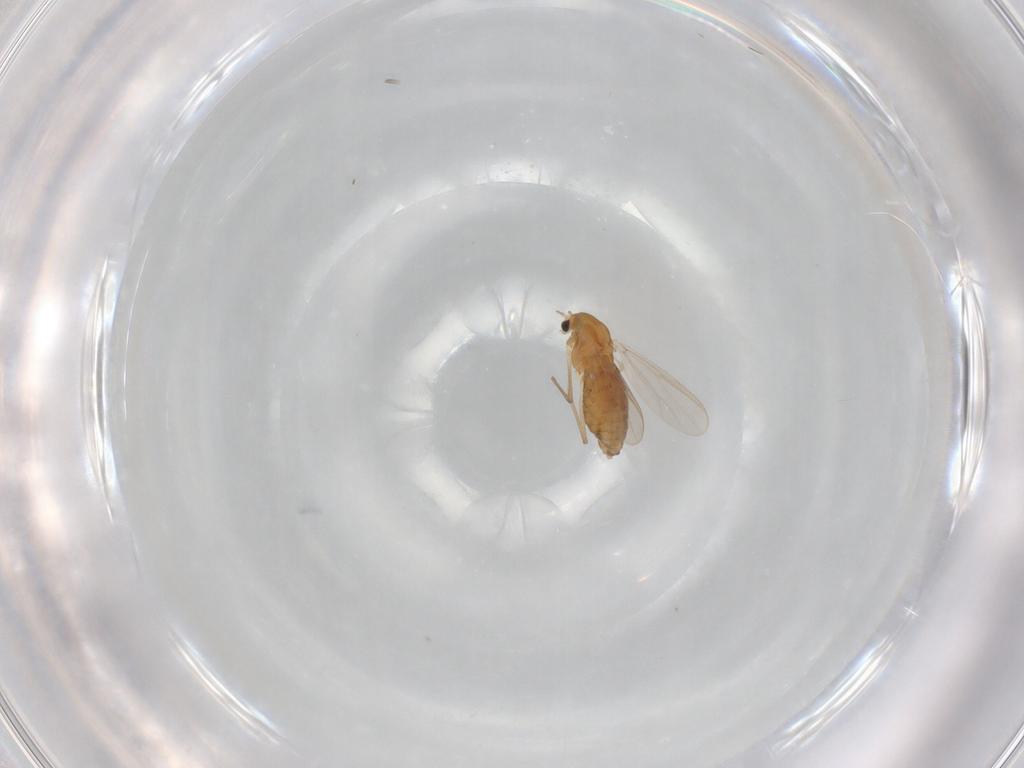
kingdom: Animalia
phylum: Arthropoda
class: Insecta
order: Diptera
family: Chironomidae
